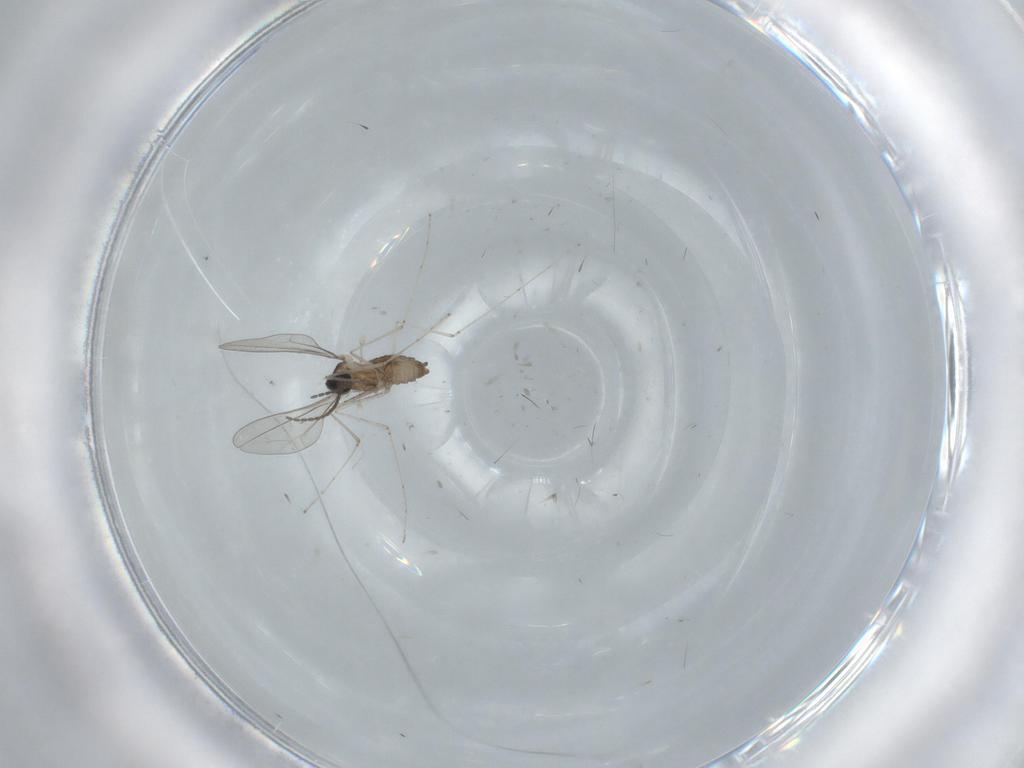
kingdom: Animalia
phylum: Arthropoda
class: Insecta
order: Diptera
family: Cecidomyiidae
